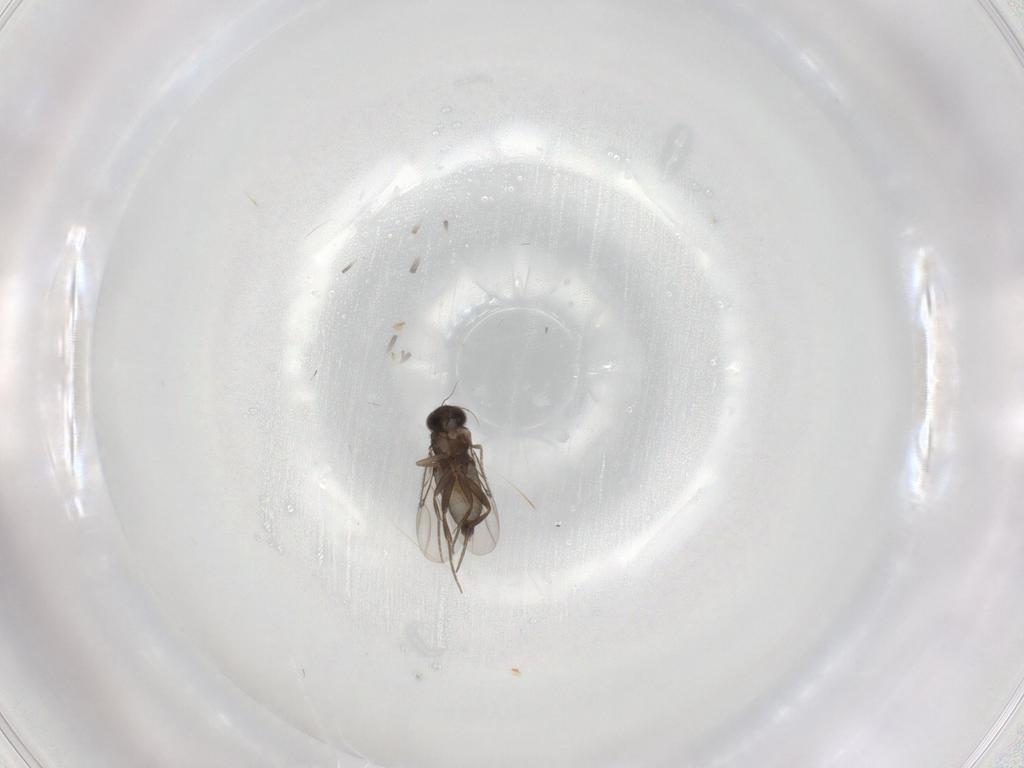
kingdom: Animalia
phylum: Arthropoda
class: Insecta
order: Diptera
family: Phoridae
